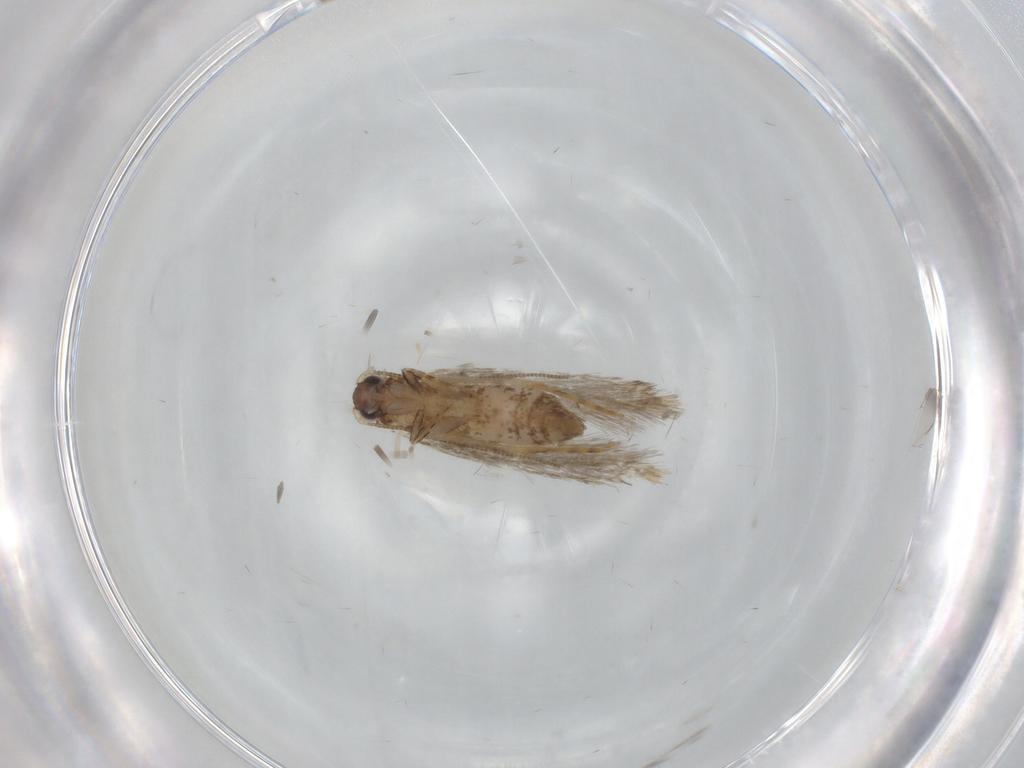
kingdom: Animalia
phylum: Arthropoda
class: Insecta
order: Lepidoptera
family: Tineidae
